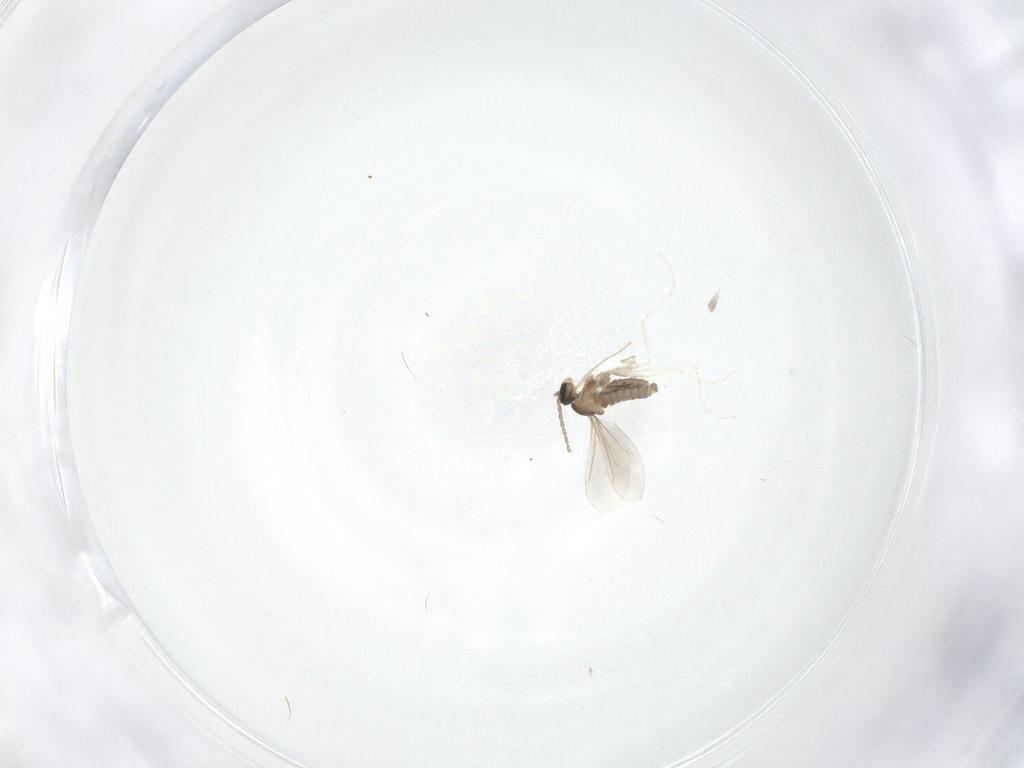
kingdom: Animalia
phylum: Arthropoda
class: Insecta
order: Diptera
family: Cecidomyiidae
